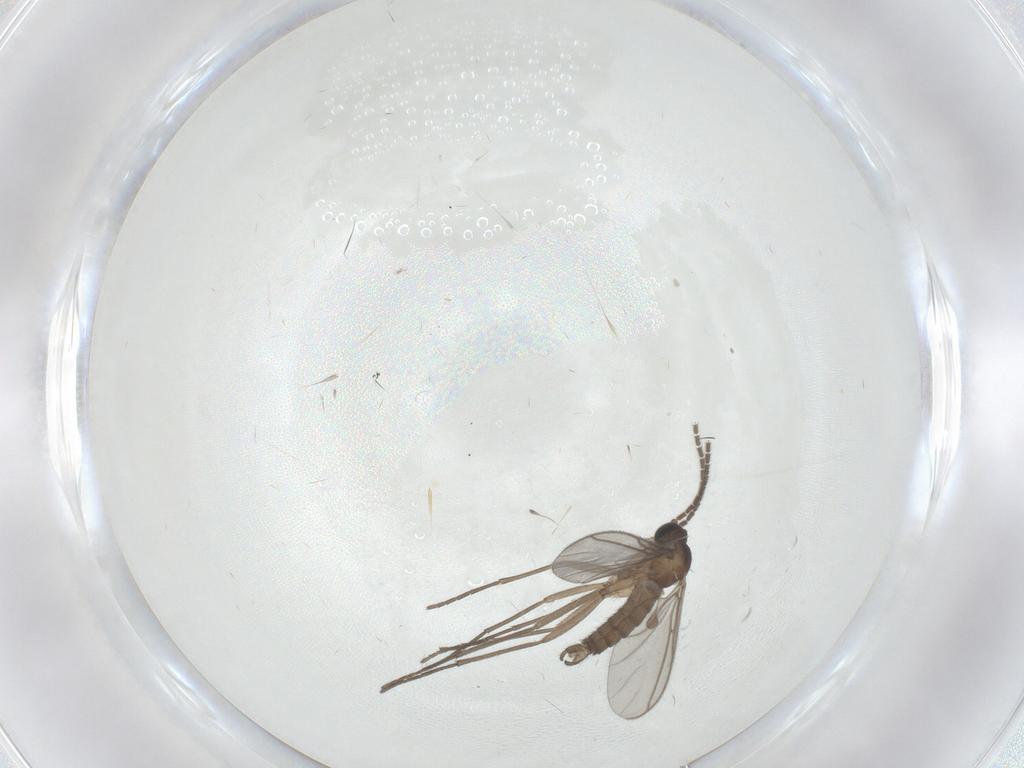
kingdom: Animalia
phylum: Arthropoda
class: Insecta
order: Diptera
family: Sciaridae
